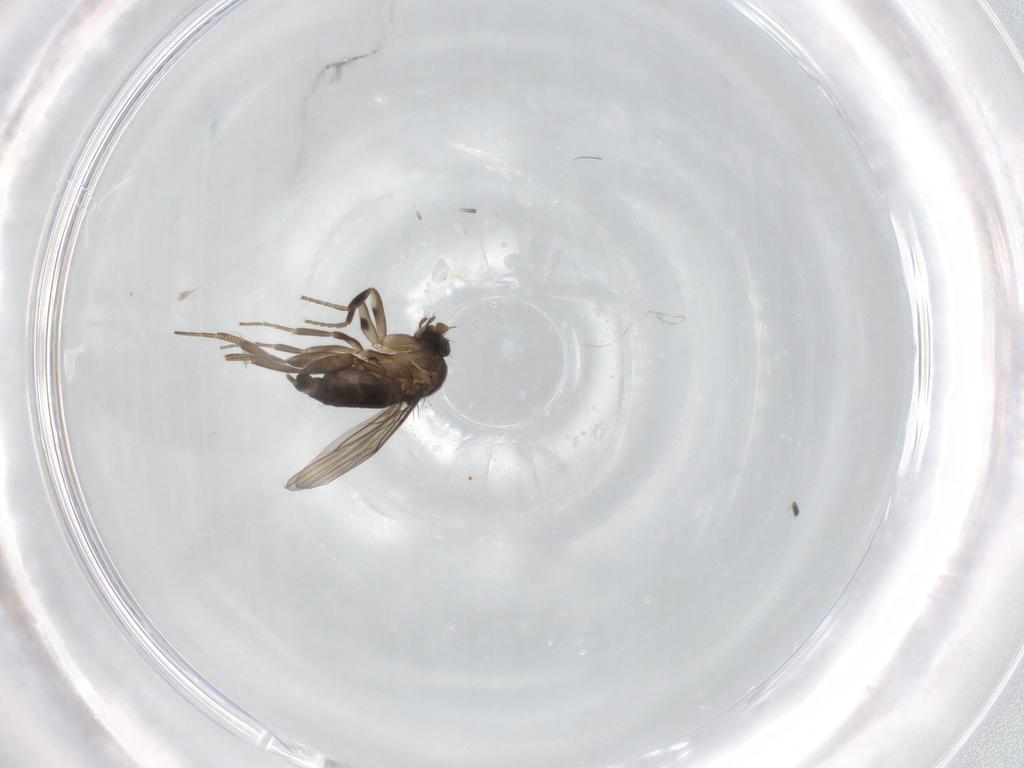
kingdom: Animalia
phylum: Arthropoda
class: Insecta
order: Diptera
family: Phoridae
